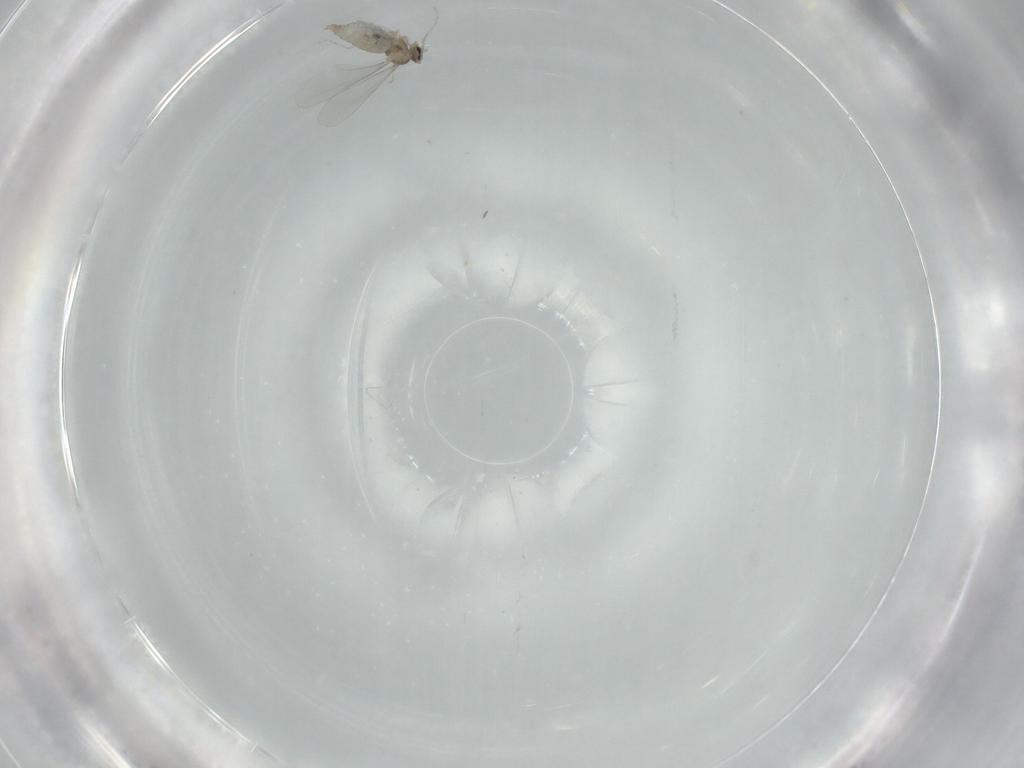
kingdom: Animalia
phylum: Arthropoda
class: Insecta
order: Diptera
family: Cecidomyiidae
